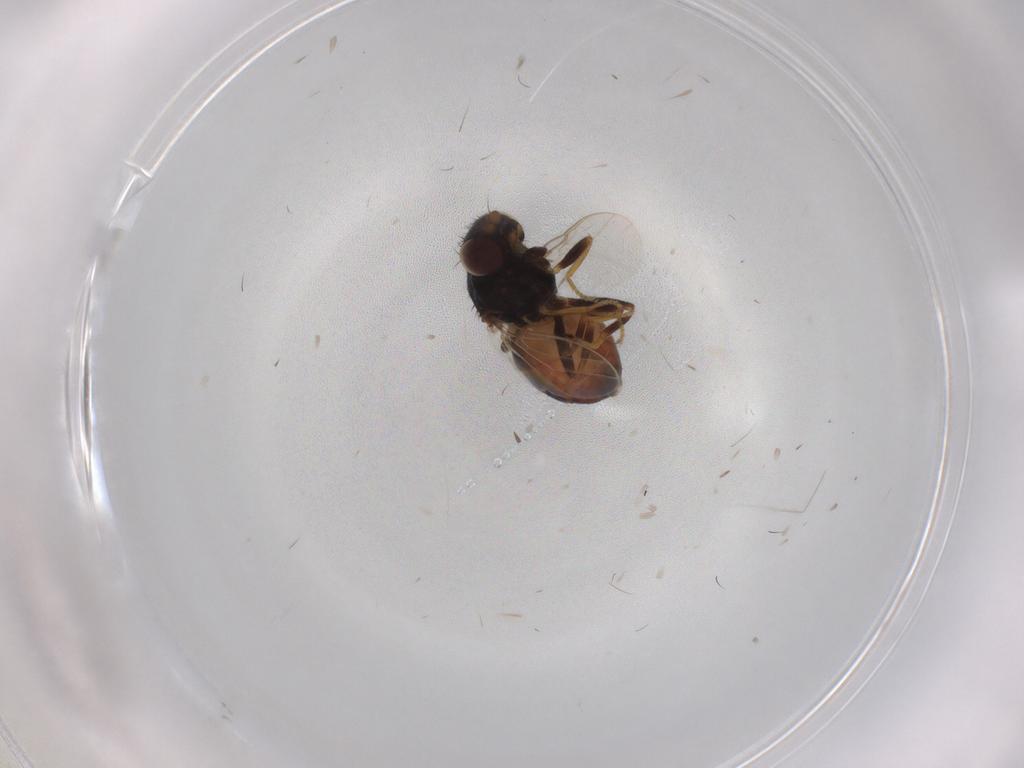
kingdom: Animalia
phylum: Arthropoda
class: Insecta
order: Diptera
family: Chloropidae
